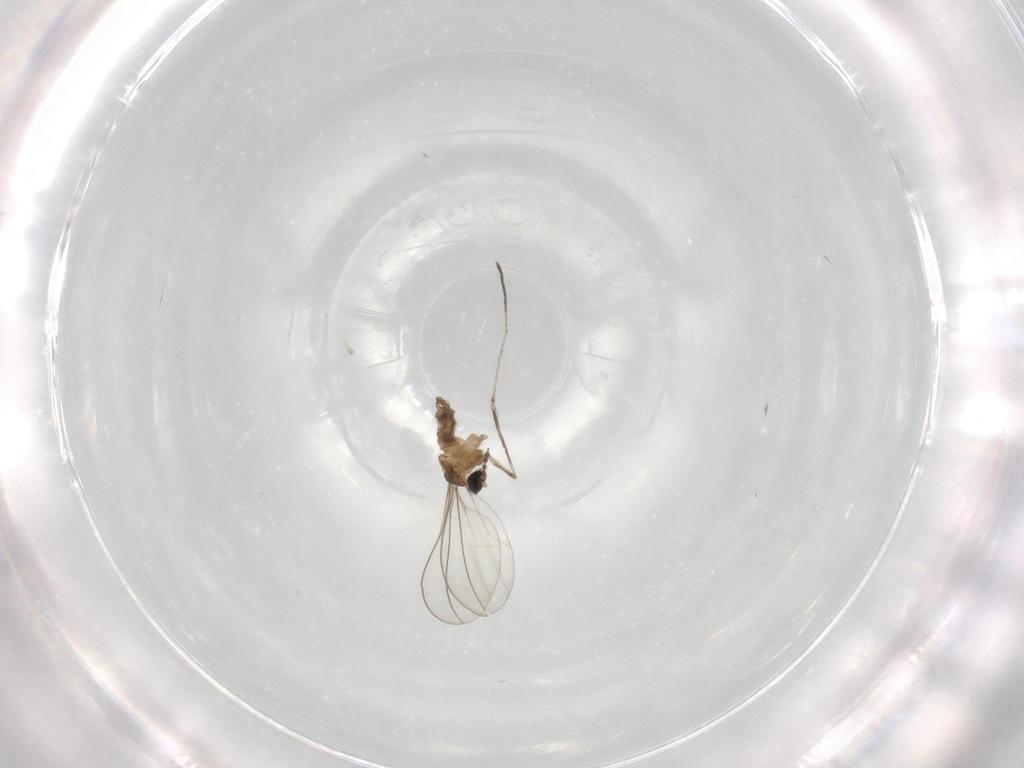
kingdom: Animalia
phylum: Arthropoda
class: Insecta
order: Diptera
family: Cecidomyiidae
